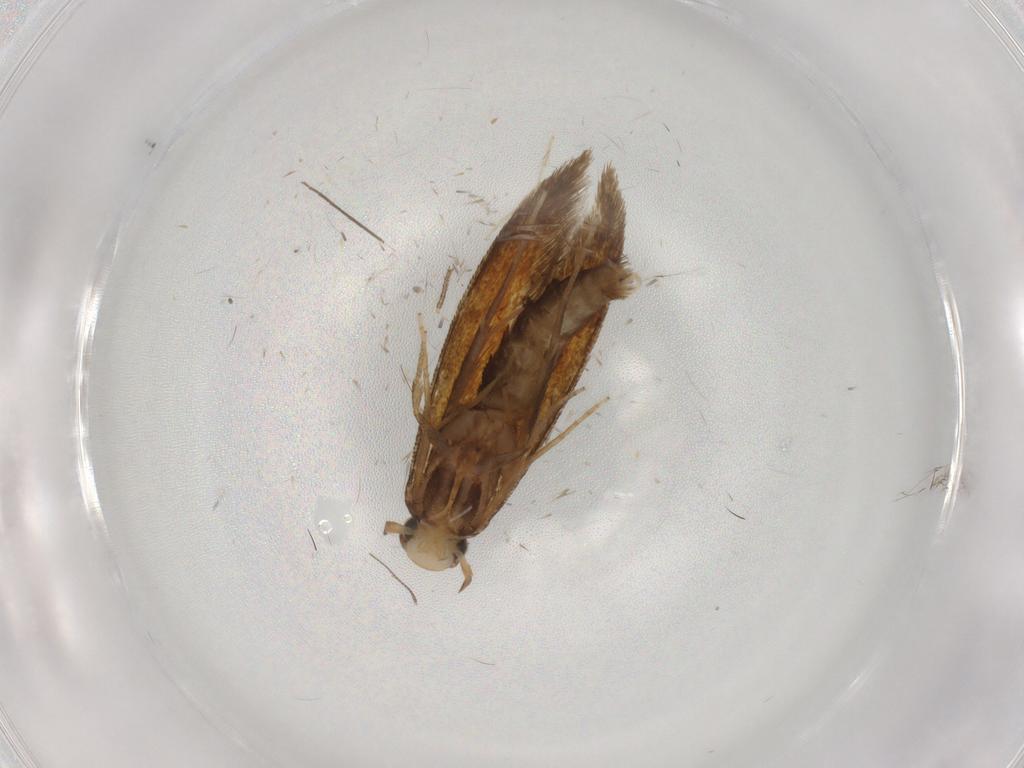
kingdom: Animalia
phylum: Arthropoda
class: Insecta
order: Lepidoptera
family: Tineidae
